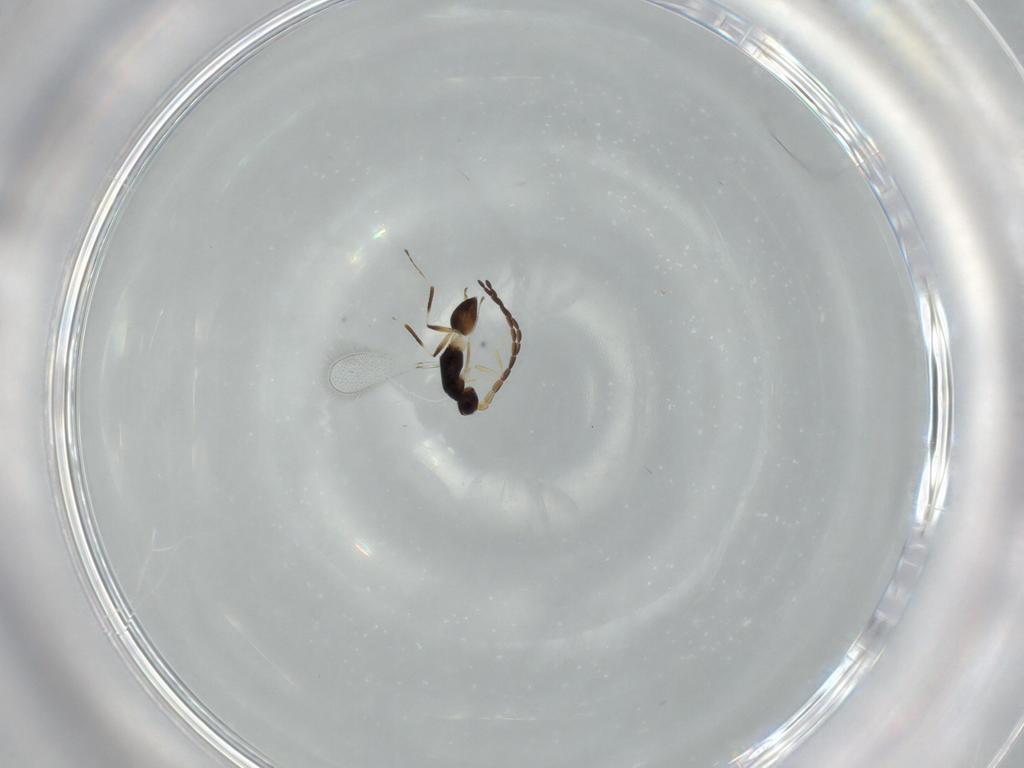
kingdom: Animalia
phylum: Arthropoda
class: Insecta
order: Hymenoptera
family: Mymaridae
